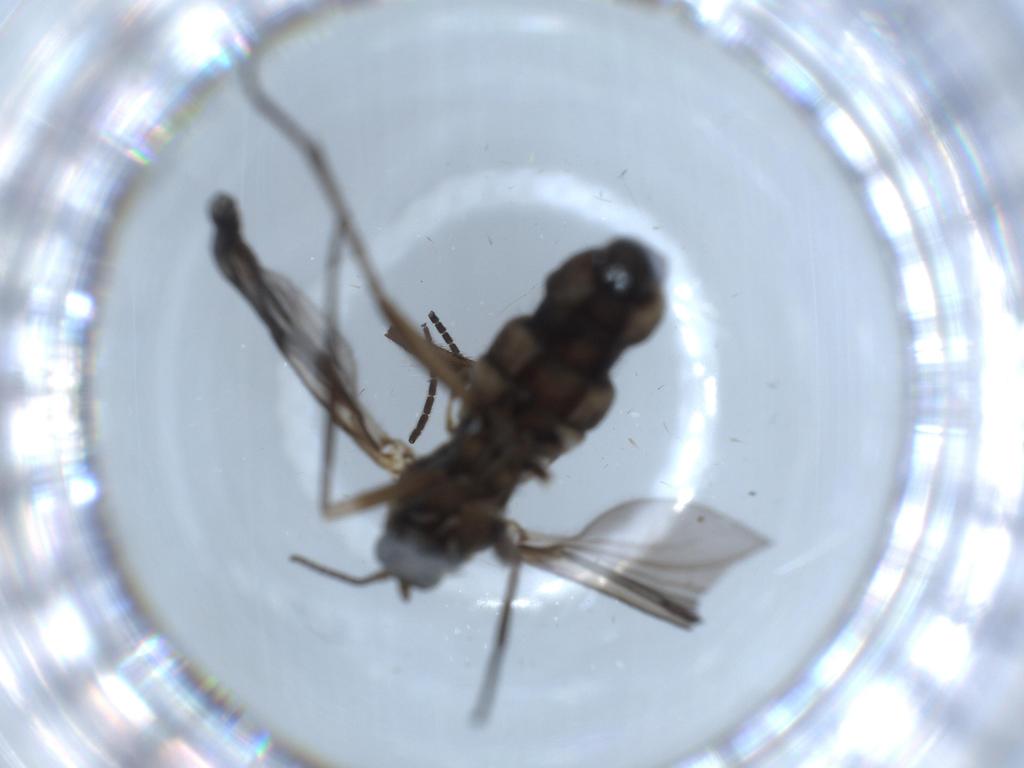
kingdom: Animalia
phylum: Arthropoda
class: Insecta
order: Diptera
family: Sciaridae
